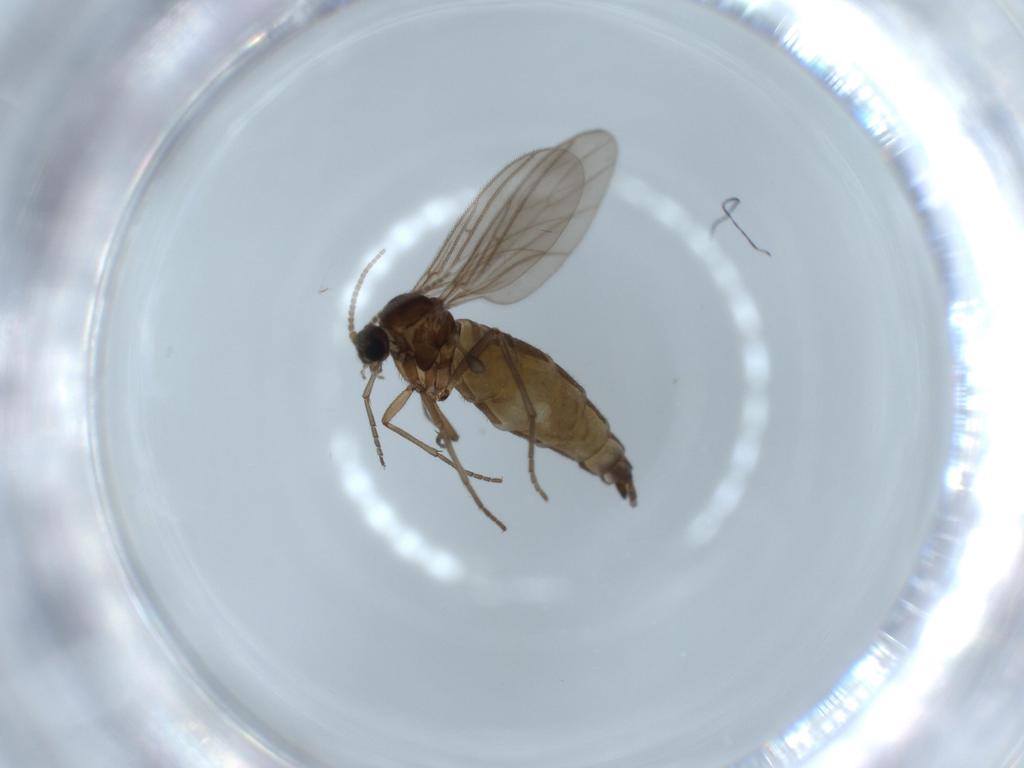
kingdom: Animalia
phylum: Arthropoda
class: Insecta
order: Diptera
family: Sciaridae
